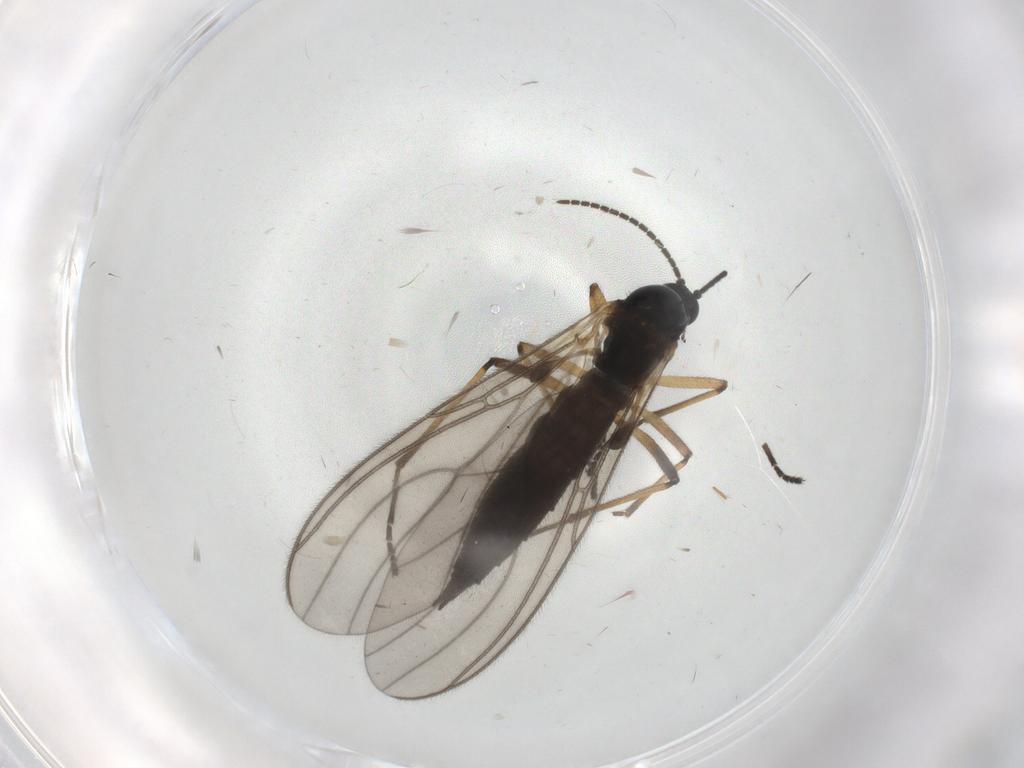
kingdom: Animalia
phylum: Arthropoda
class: Insecta
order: Diptera
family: Sciaridae
